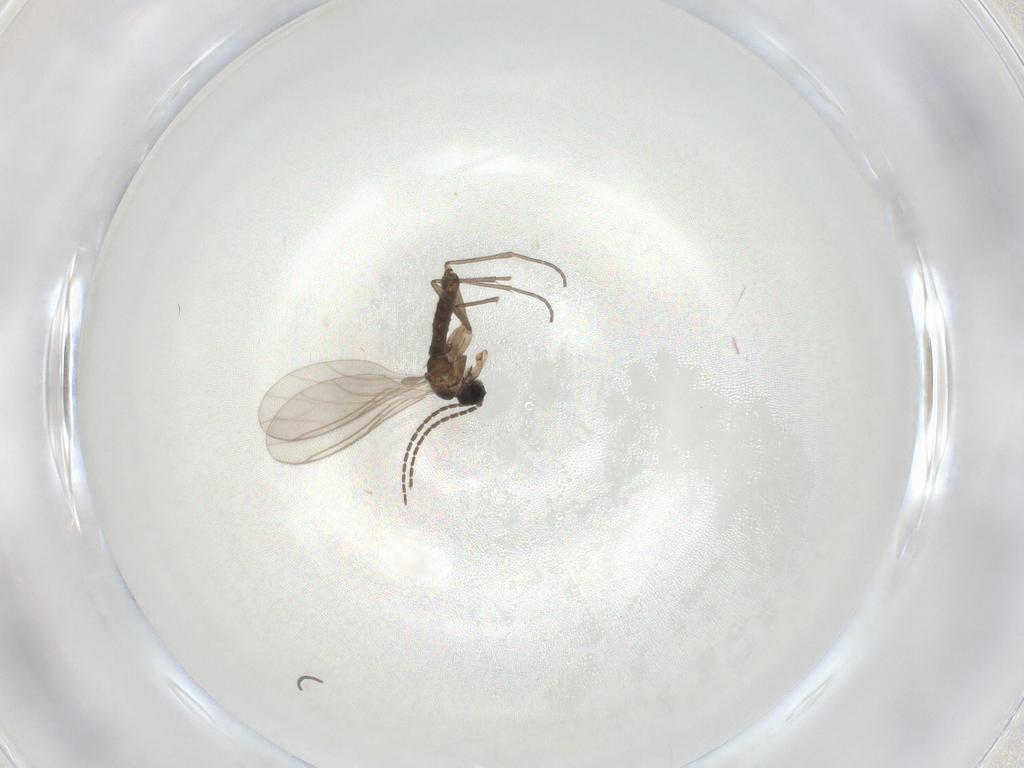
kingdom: Animalia
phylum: Arthropoda
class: Insecta
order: Diptera
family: Sciaridae
